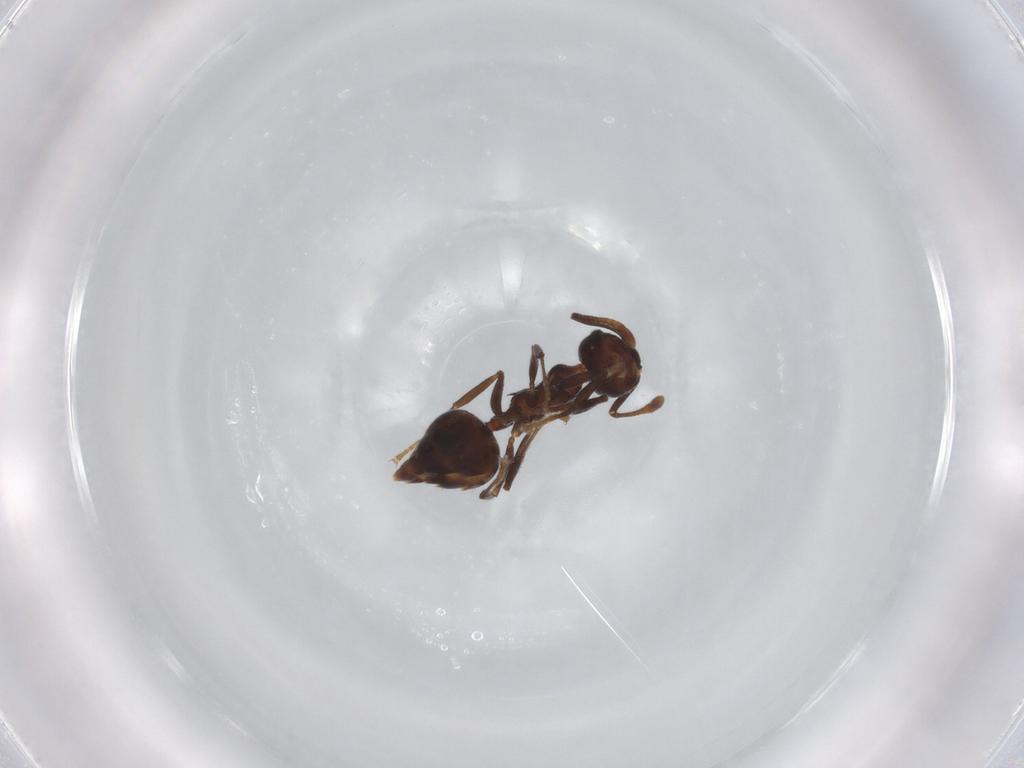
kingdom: Animalia
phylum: Arthropoda
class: Insecta
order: Hymenoptera
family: Formicidae
